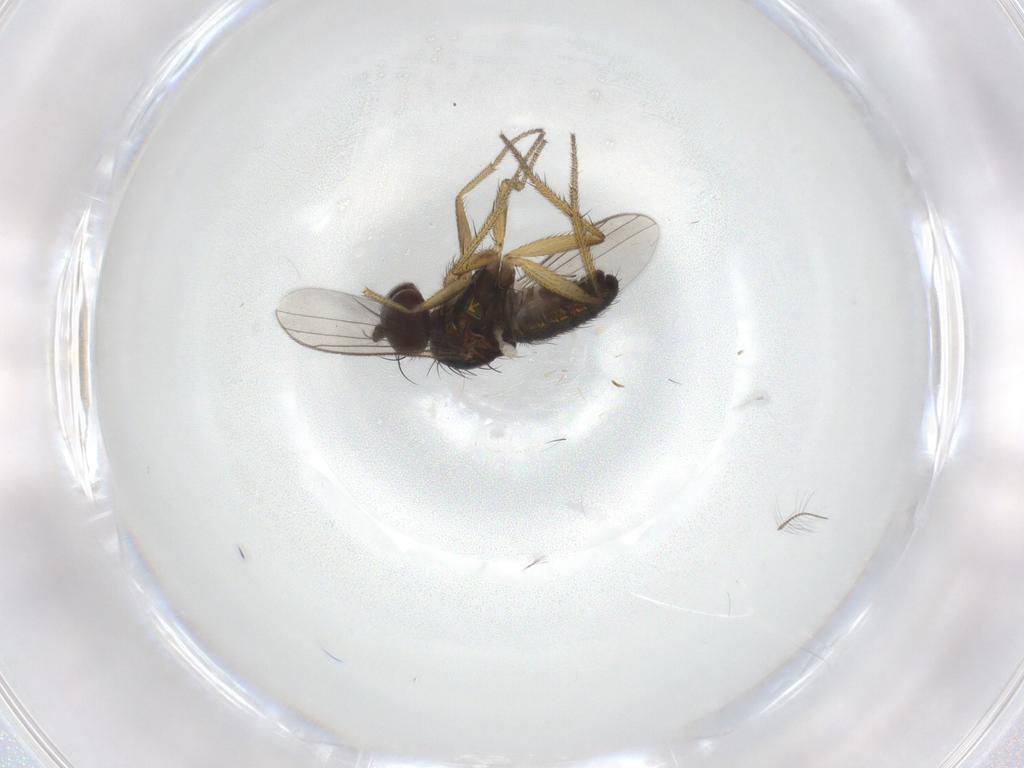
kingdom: Animalia
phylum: Arthropoda
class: Insecta
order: Diptera
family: Ceratopogonidae
